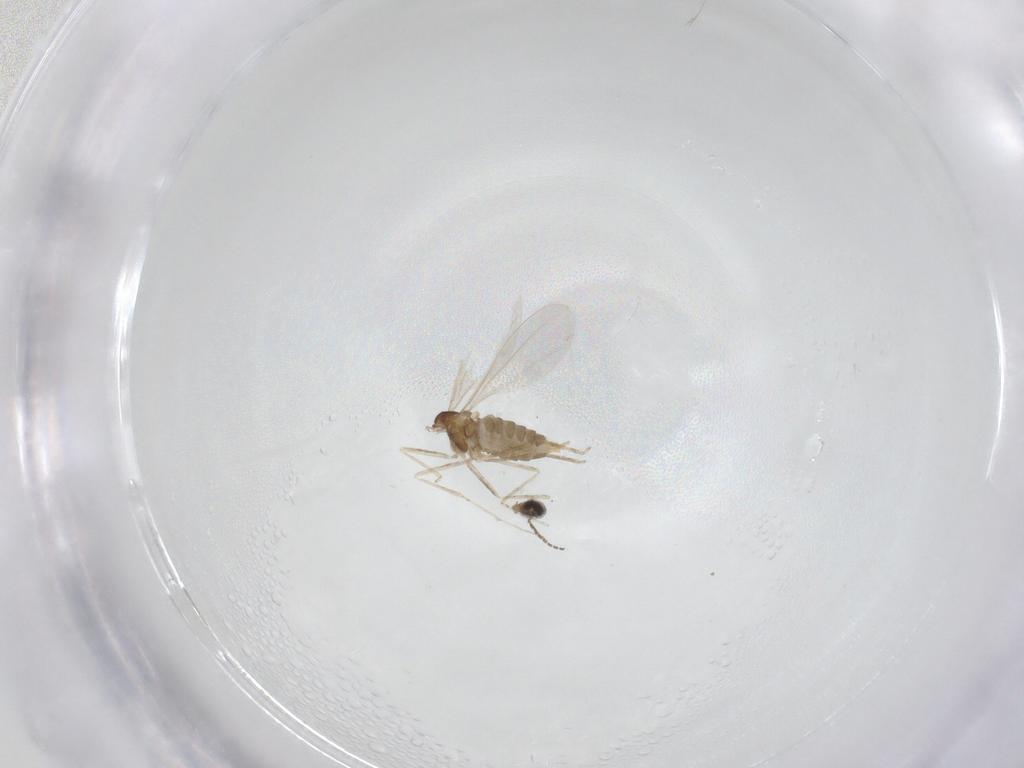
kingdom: Animalia
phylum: Arthropoda
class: Insecta
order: Diptera
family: Cecidomyiidae
